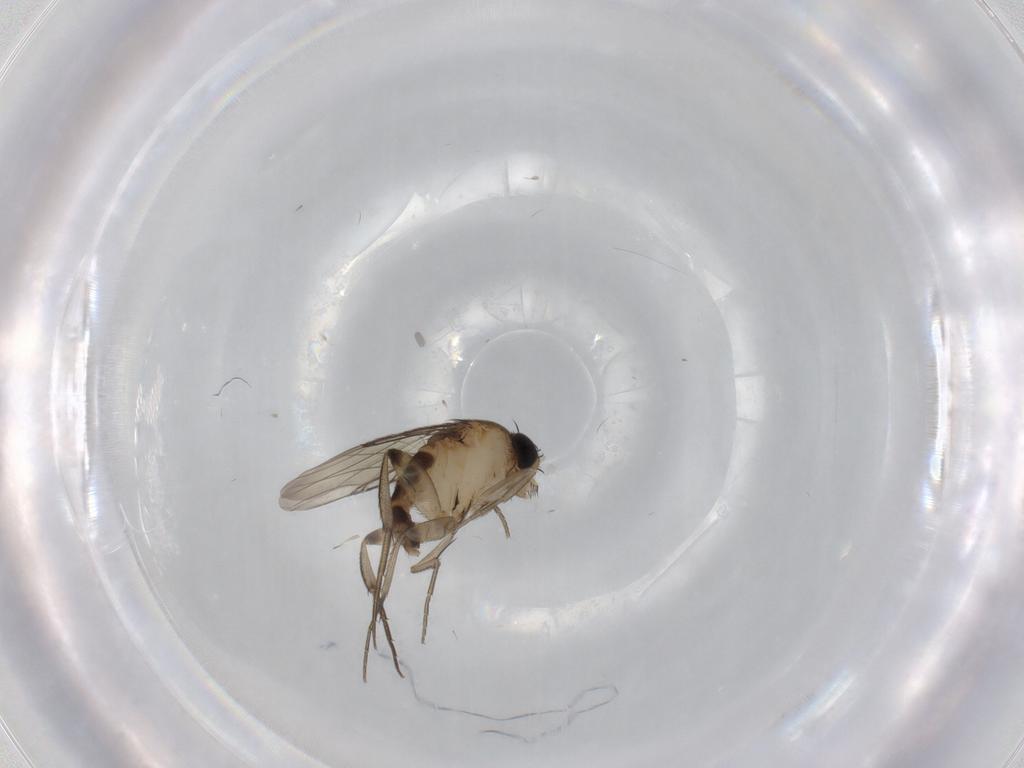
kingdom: Animalia
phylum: Arthropoda
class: Insecta
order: Diptera
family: Phoridae
